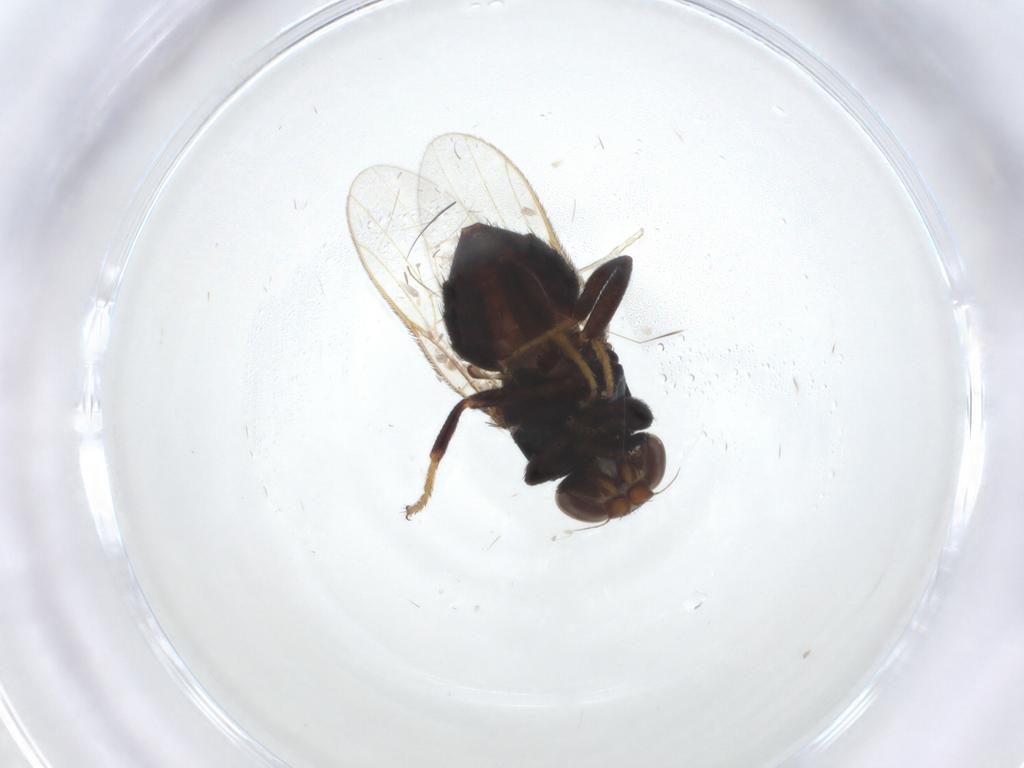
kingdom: Animalia
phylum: Arthropoda
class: Insecta
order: Diptera
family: Chloropidae
